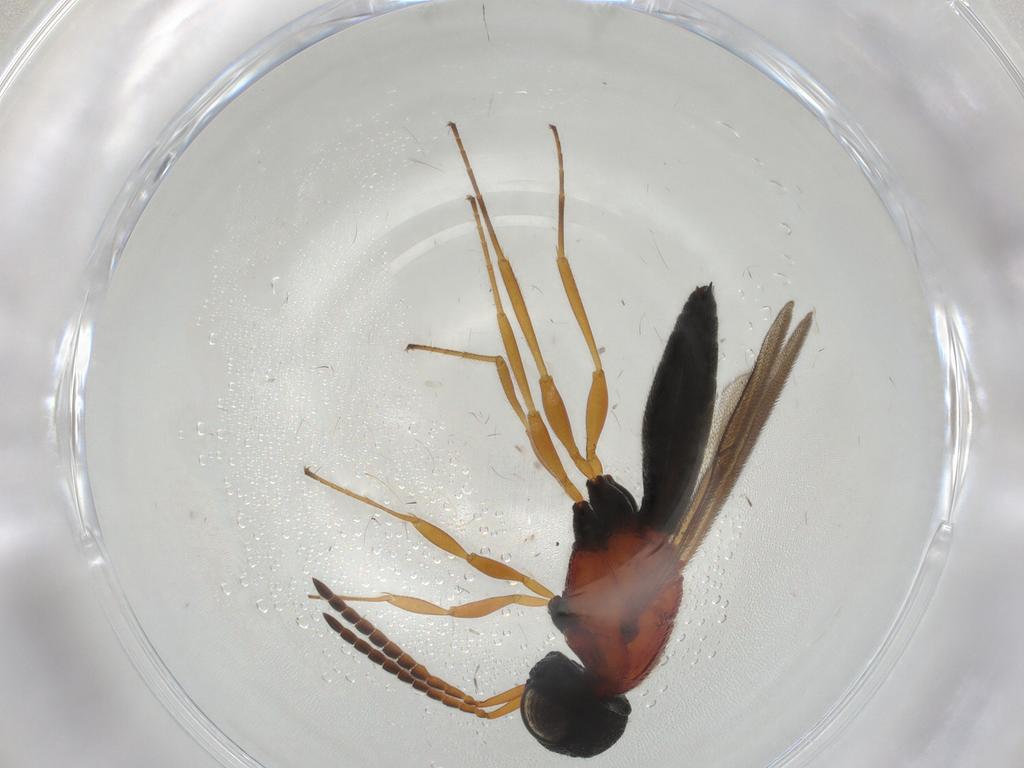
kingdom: Animalia
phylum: Arthropoda
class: Insecta
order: Hymenoptera
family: Scelionidae
